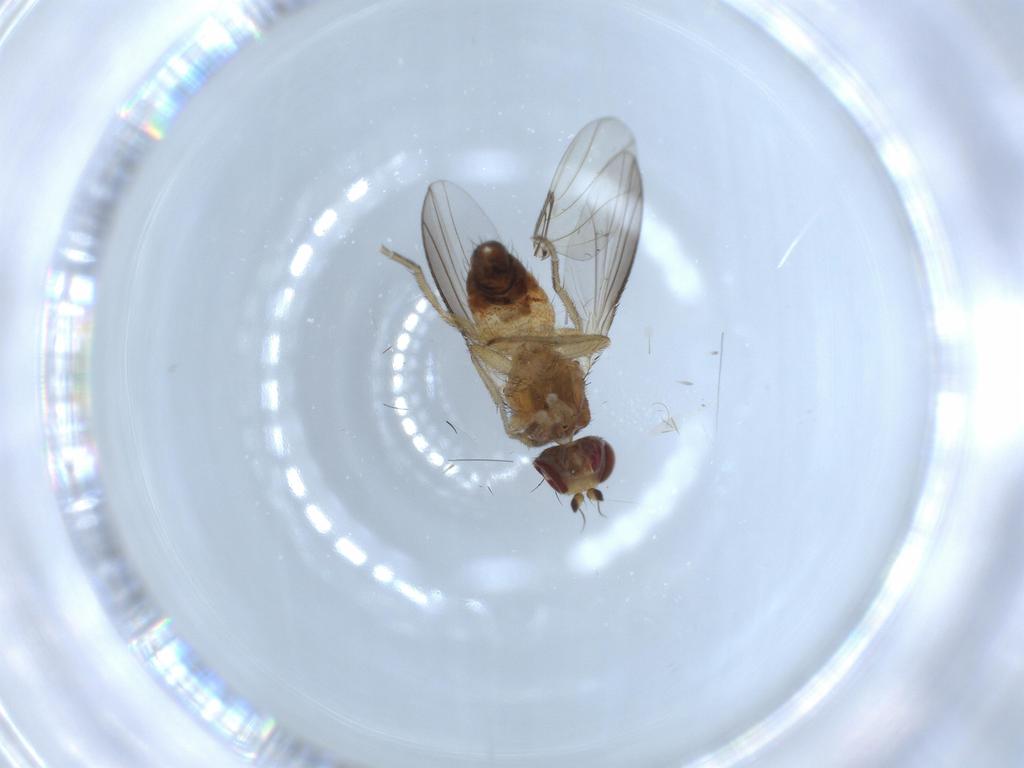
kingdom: Animalia
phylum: Arthropoda
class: Insecta
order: Diptera
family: Heleomyzidae
